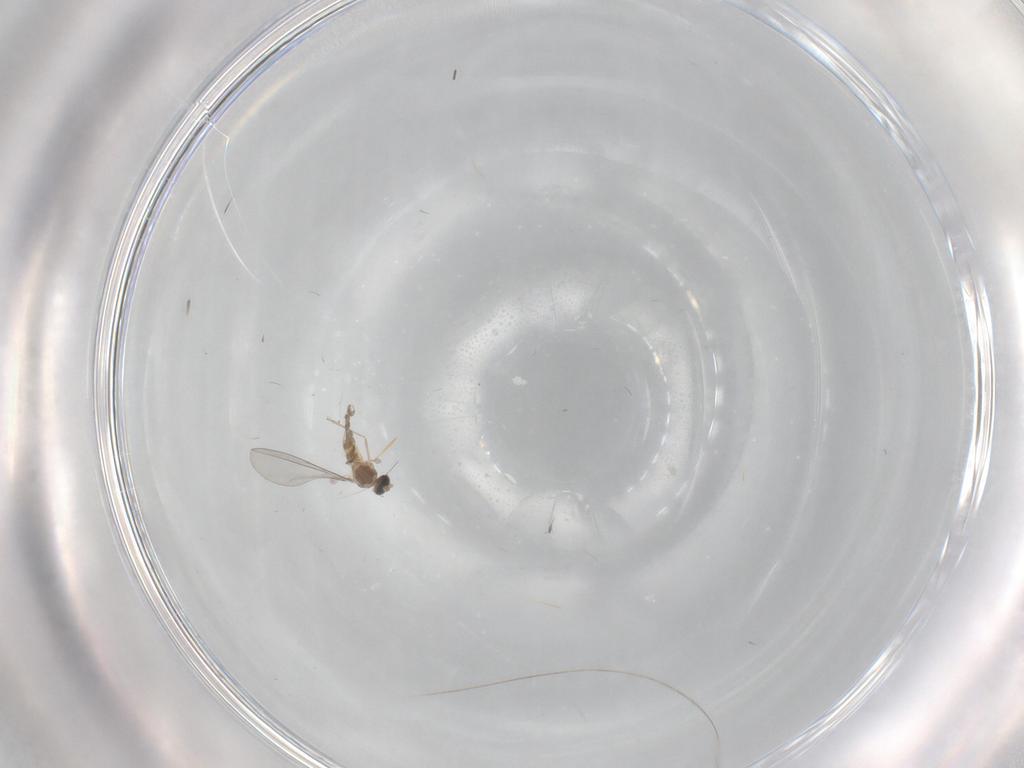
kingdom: Animalia
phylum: Arthropoda
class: Insecta
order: Diptera
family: Cecidomyiidae
